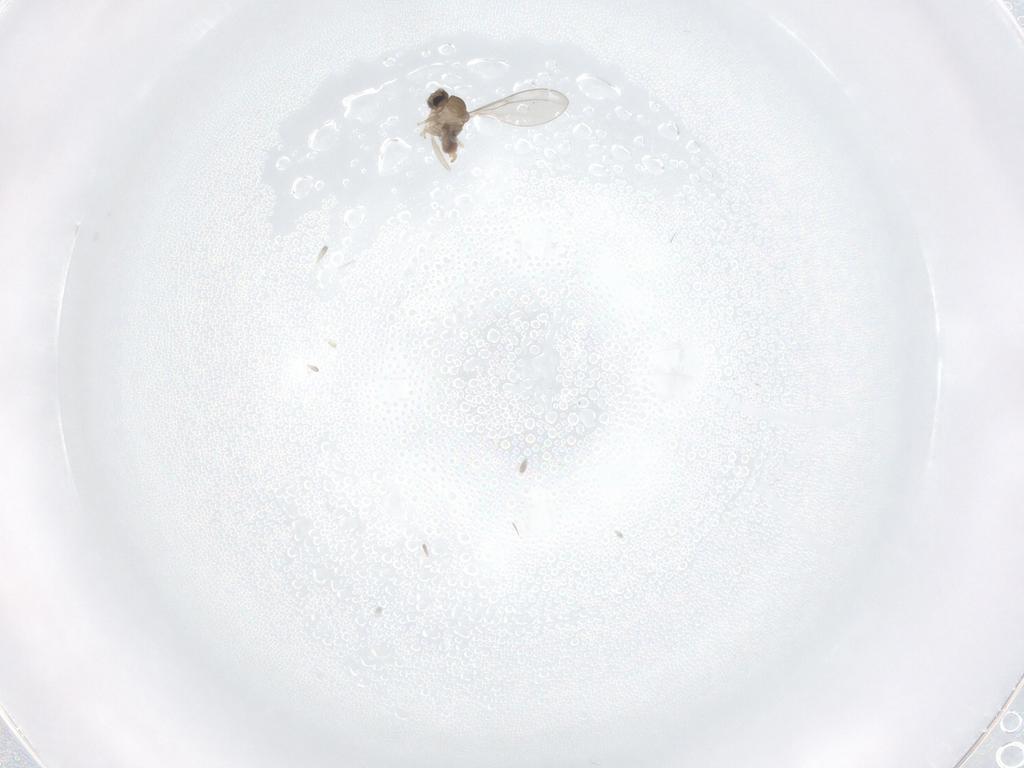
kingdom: Animalia
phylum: Arthropoda
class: Insecta
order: Diptera
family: Cecidomyiidae
